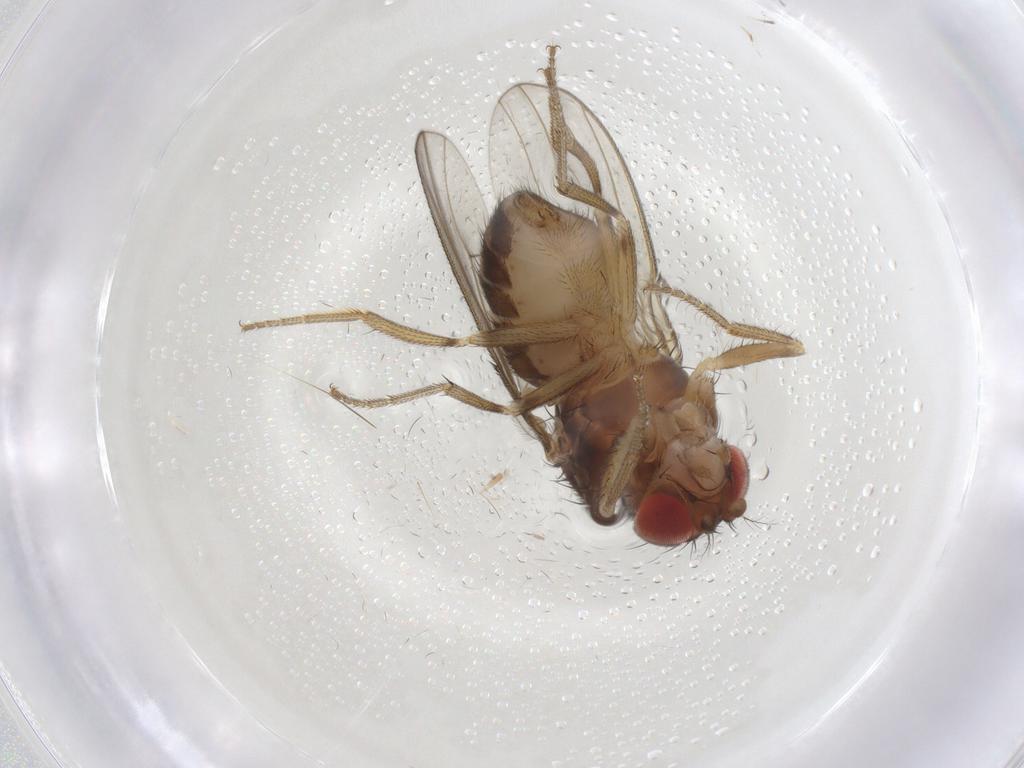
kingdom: Animalia
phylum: Arthropoda
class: Insecta
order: Diptera
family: Drosophilidae
